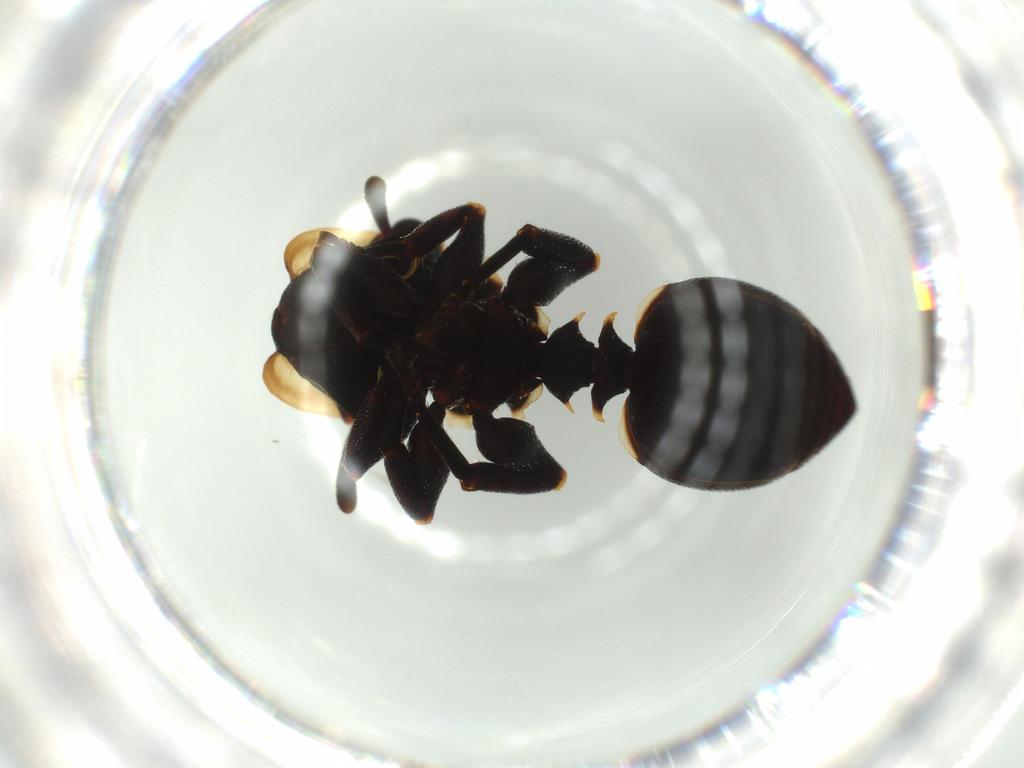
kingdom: Animalia
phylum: Arthropoda
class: Insecta
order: Hymenoptera
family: Formicidae
